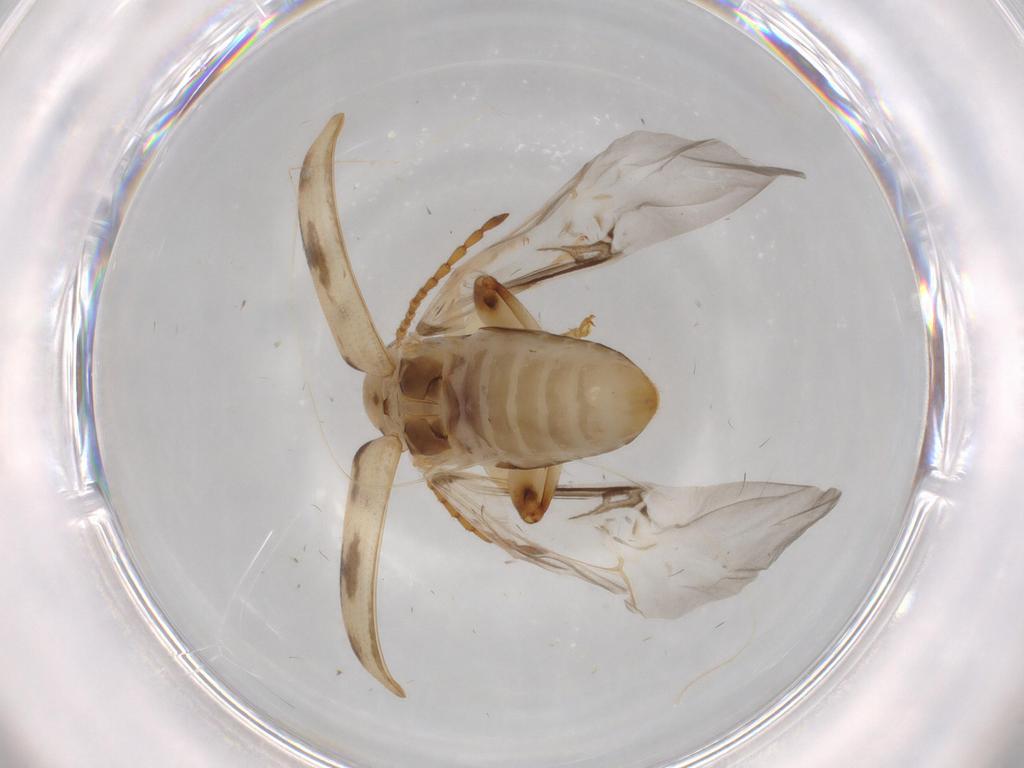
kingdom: Animalia
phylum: Arthropoda
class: Insecta
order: Coleoptera
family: Chrysomelidae
